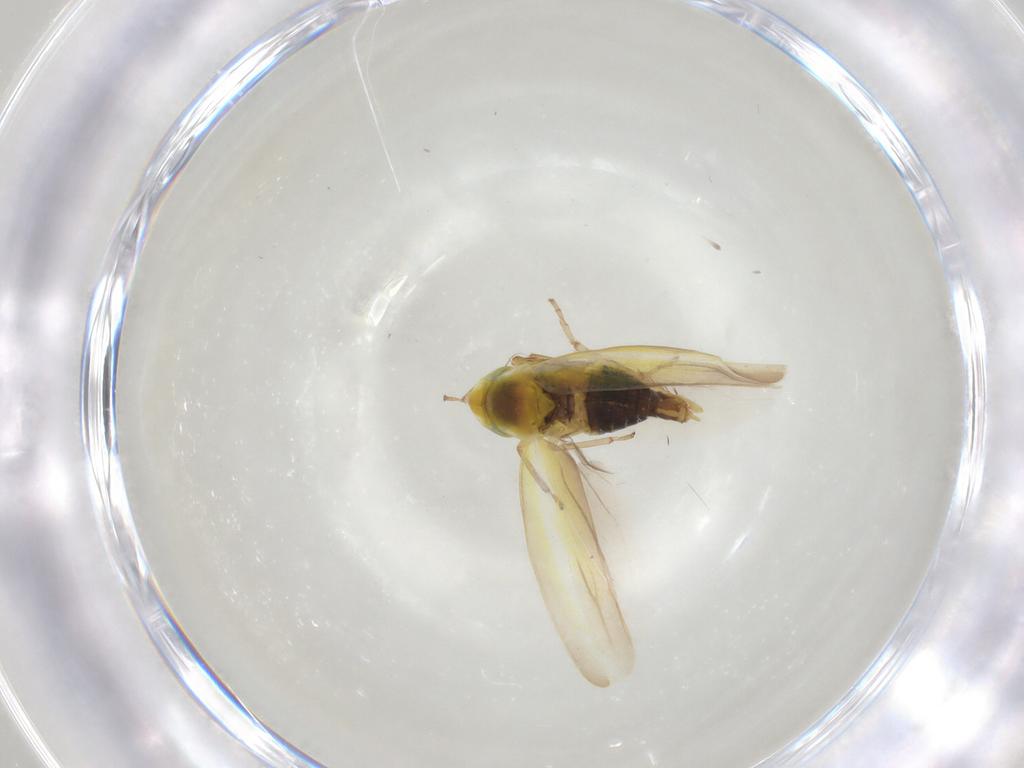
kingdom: Animalia
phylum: Arthropoda
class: Insecta
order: Hemiptera
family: Cicadellidae
